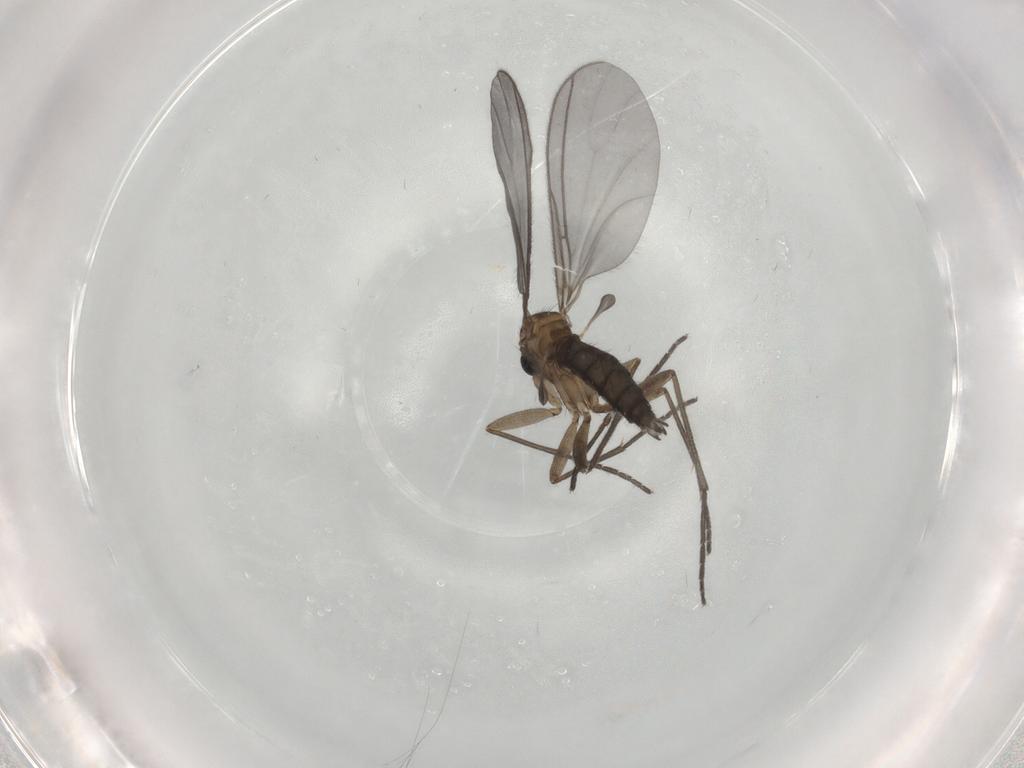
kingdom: Animalia
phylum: Arthropoda
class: Insecta
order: Diptera
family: Sciaridae
